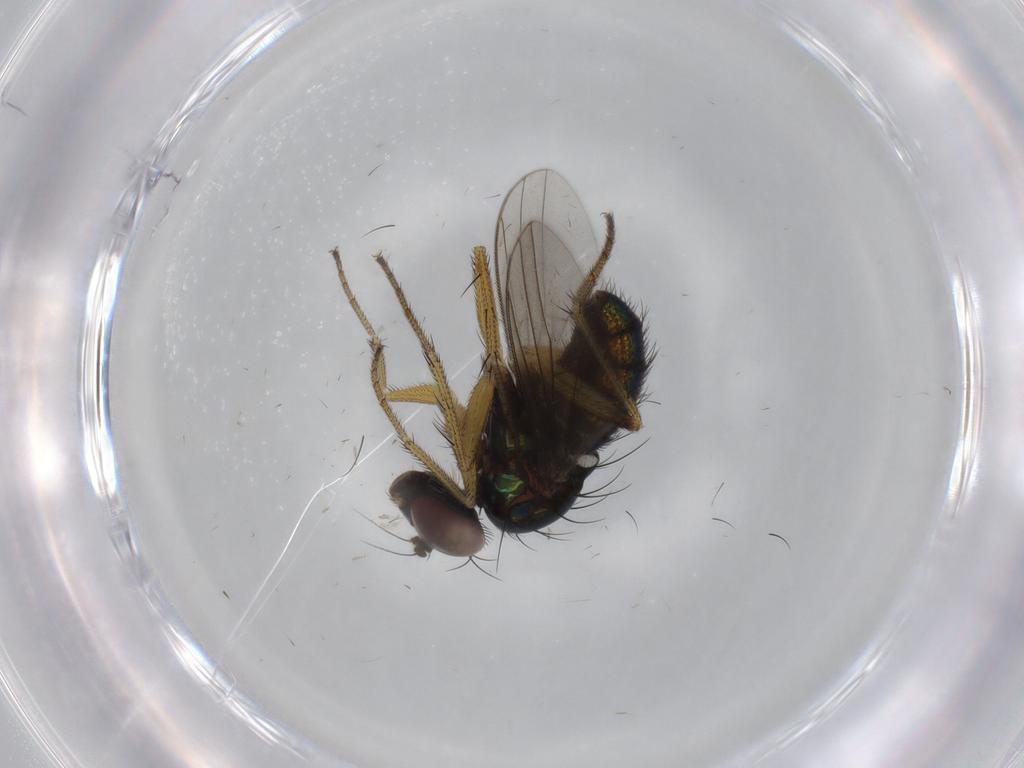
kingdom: Animalia
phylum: Arthropoda
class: Insecta
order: Diptera
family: Dolichopodidae
